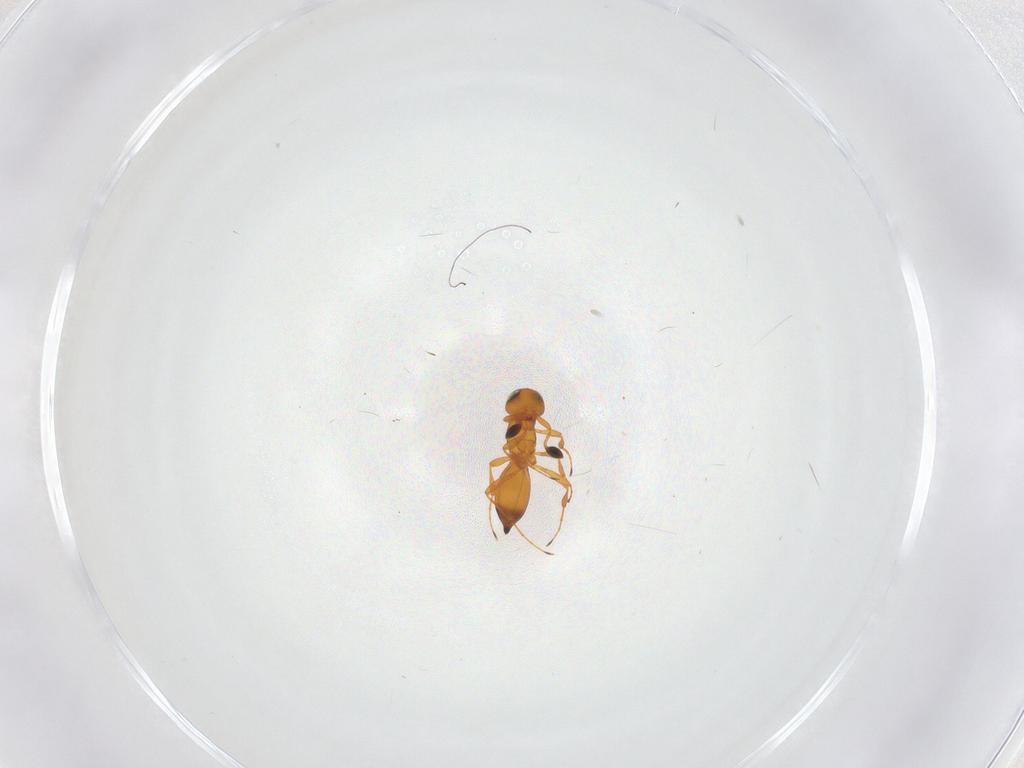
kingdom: Animalia
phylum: Arthropoda
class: Insecta
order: Hymenoptera
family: Platygastridae
